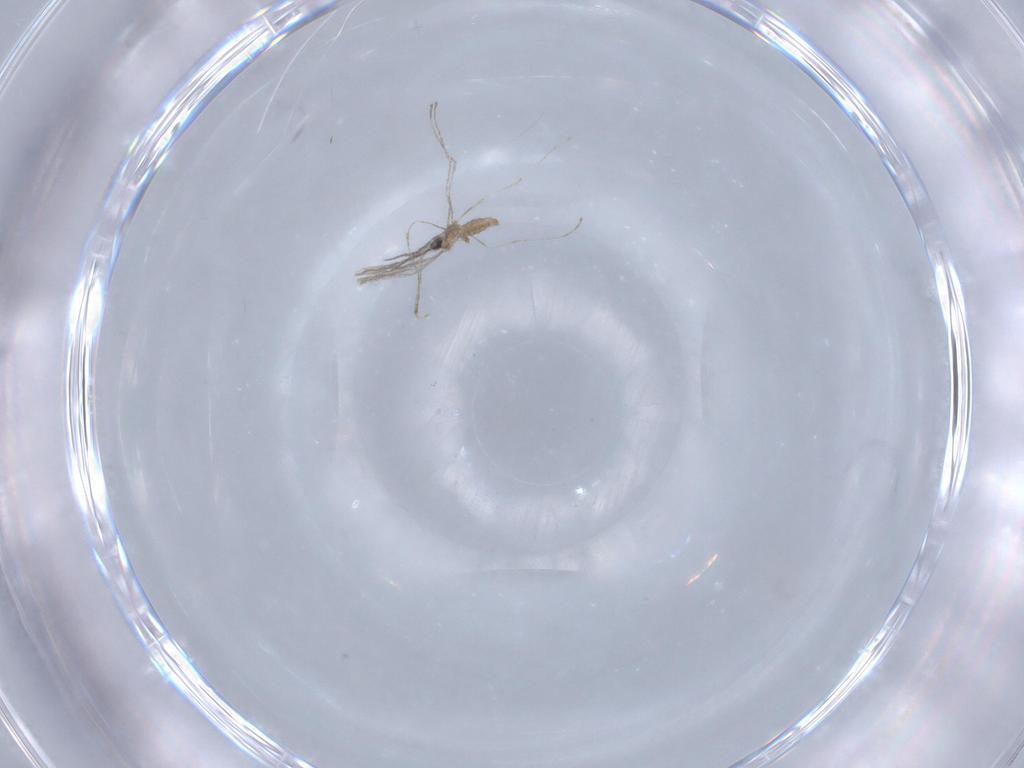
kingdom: Animalia
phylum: Arthropoda
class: Insecta
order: Diptera
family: Cecidomyiidae
